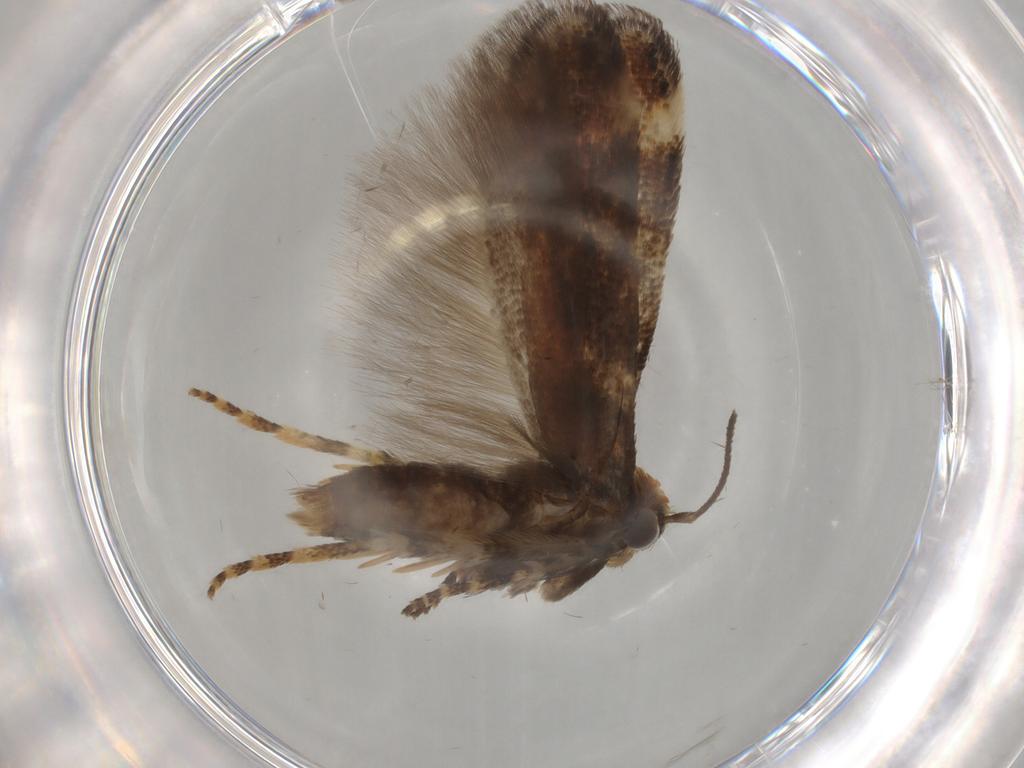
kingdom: Animalia
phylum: Arthropoda
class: Insecta
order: Lepidoptera
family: Gelechiidae
